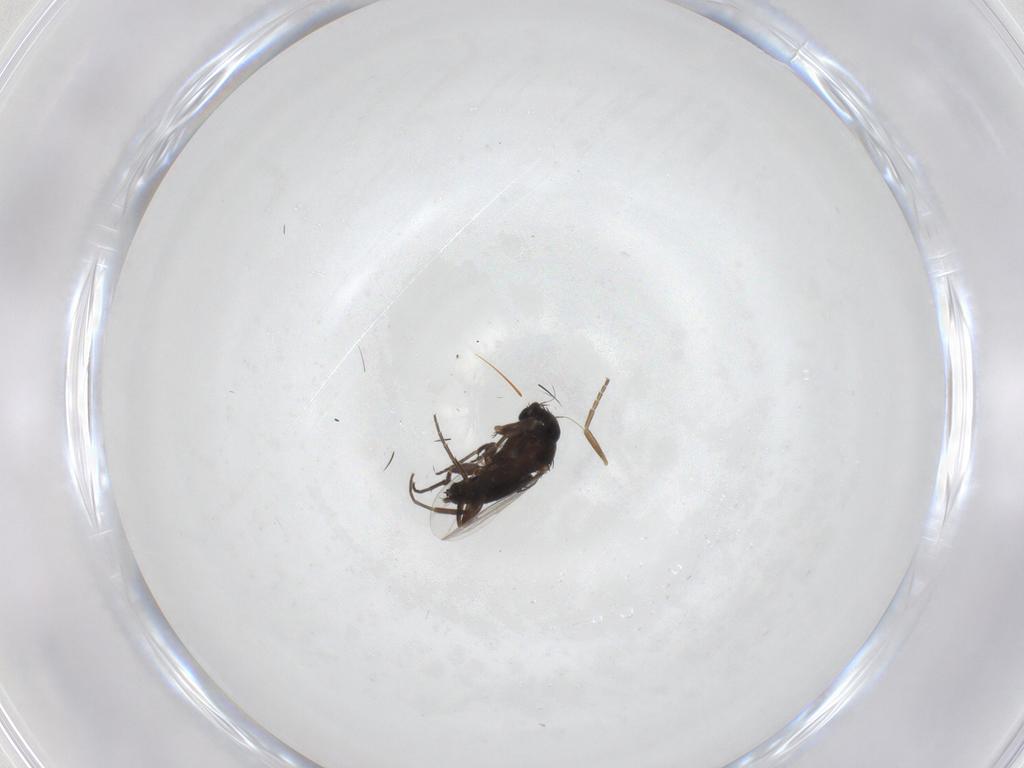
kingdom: Animalia
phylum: Arthropoda
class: Insecta
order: Diptera
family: Phoridae
